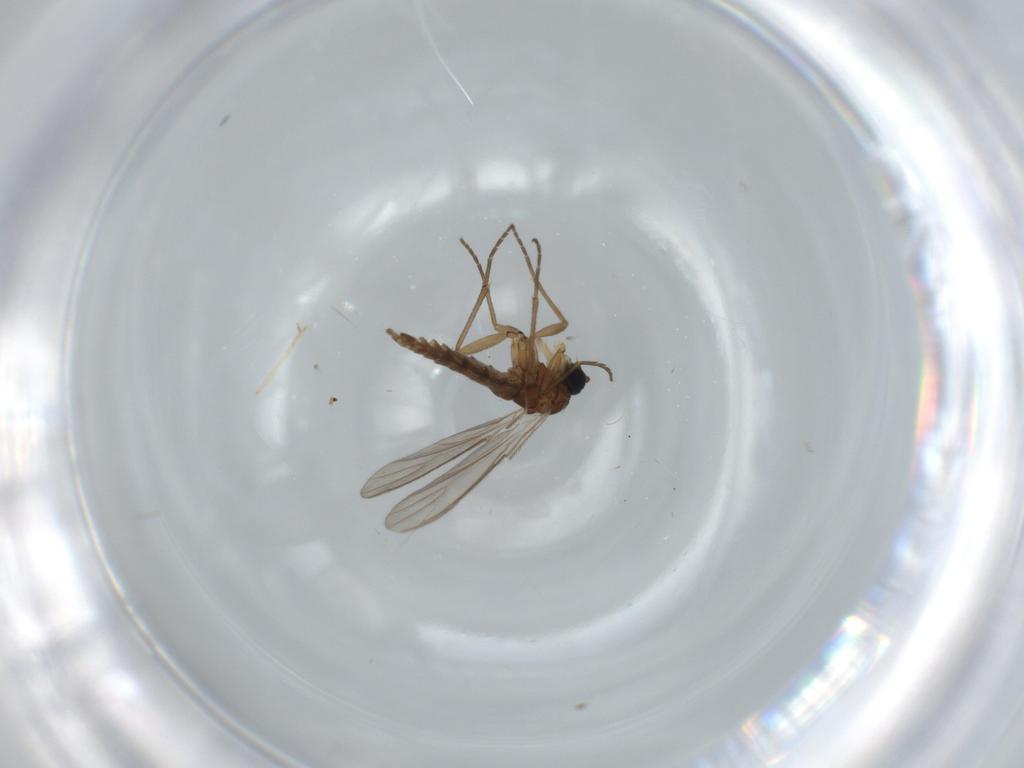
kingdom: Animalia
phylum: Arthropoda
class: Insecta
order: Diptera
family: Sciaridae
